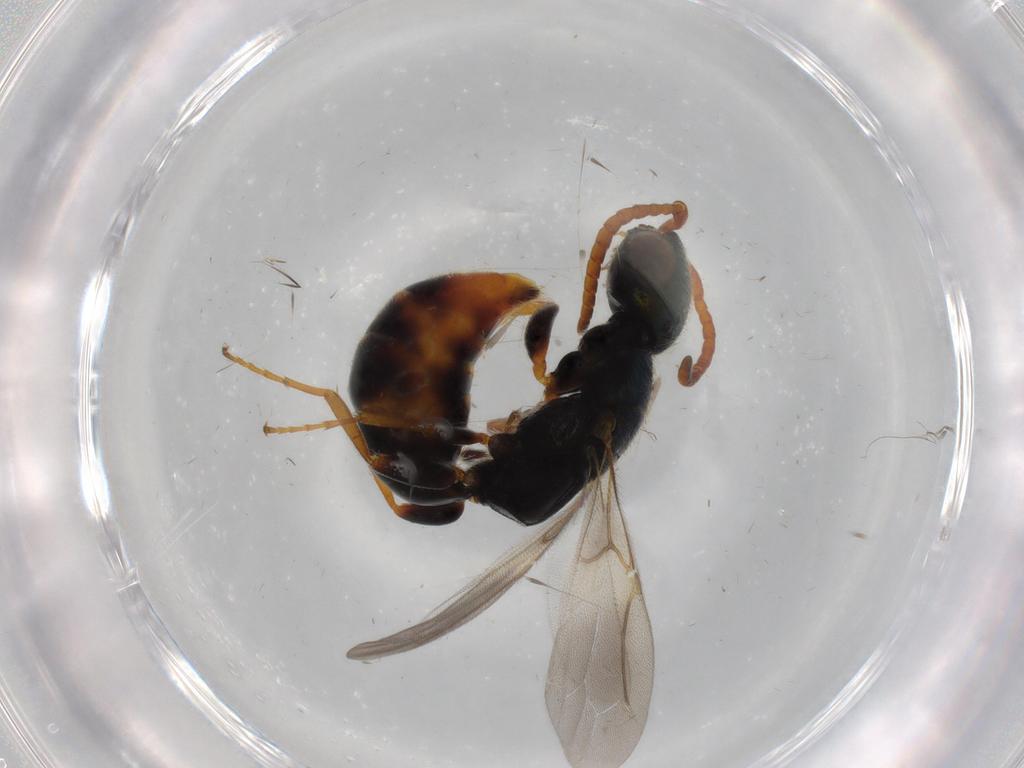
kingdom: Animalia
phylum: Arthropoda
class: Insecta
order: Hymenoptera
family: Bethylidae
